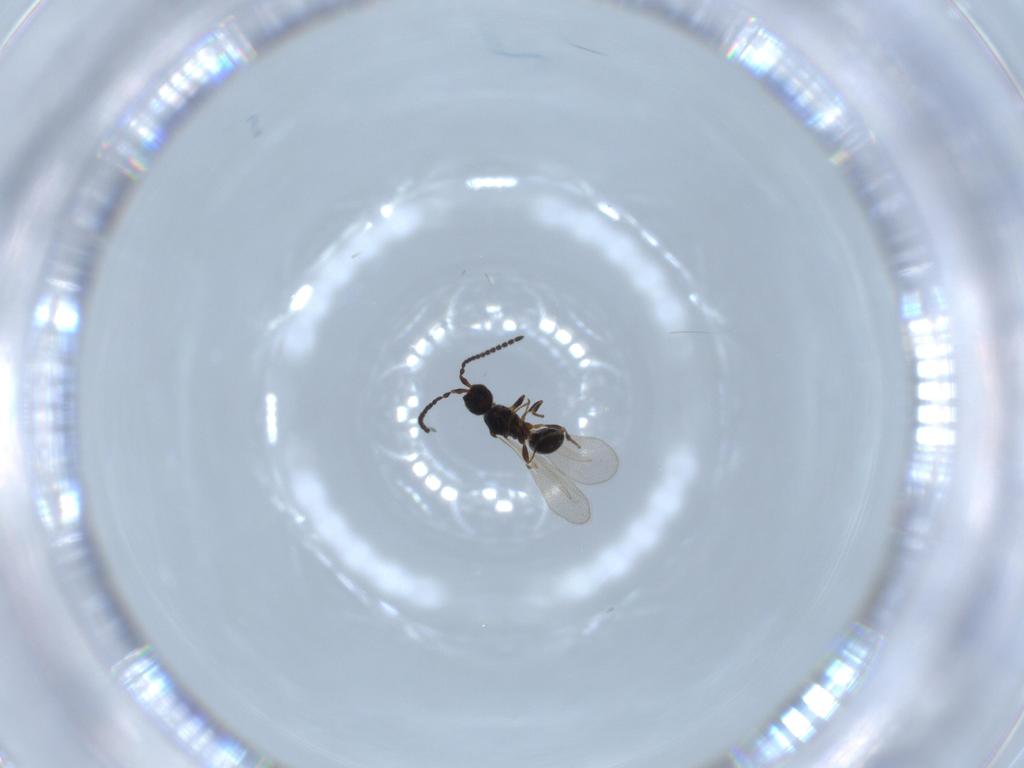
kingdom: Animalia
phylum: Arthropoda
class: Insecta
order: Hymenoptera
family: Diapriidae
